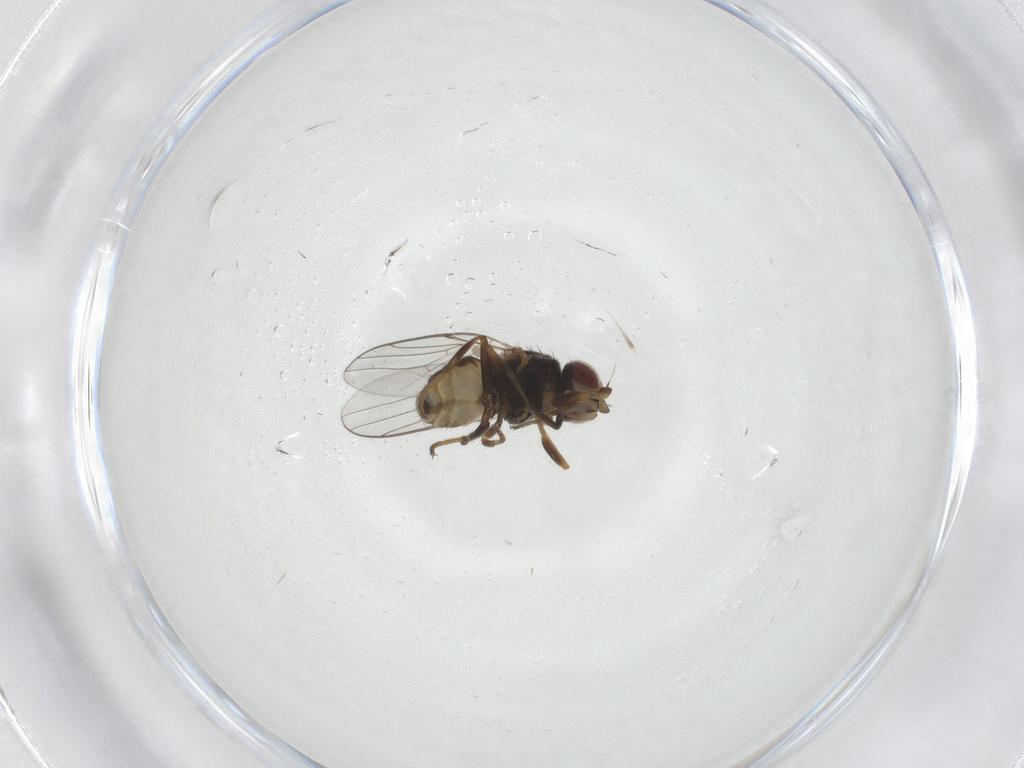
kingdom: Animalia
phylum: Arthropoda
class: Insecta
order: Diptera
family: Chloropidae
